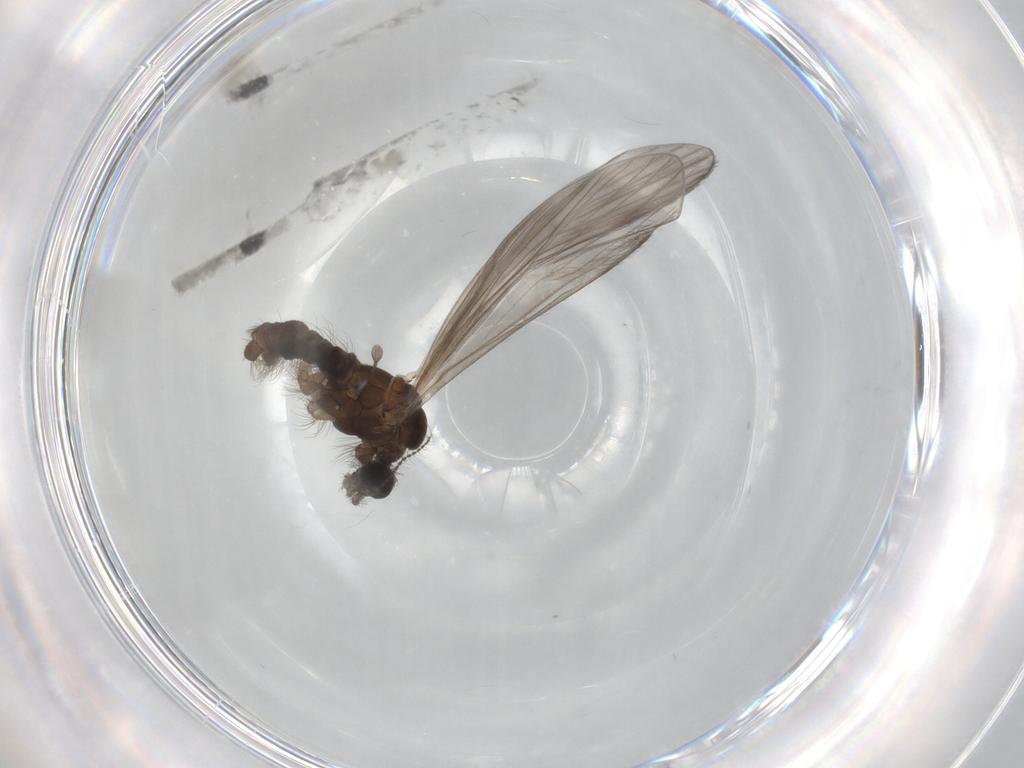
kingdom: Animalia
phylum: Arthropoda
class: Insecta
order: Diptera
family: Limoniidae
